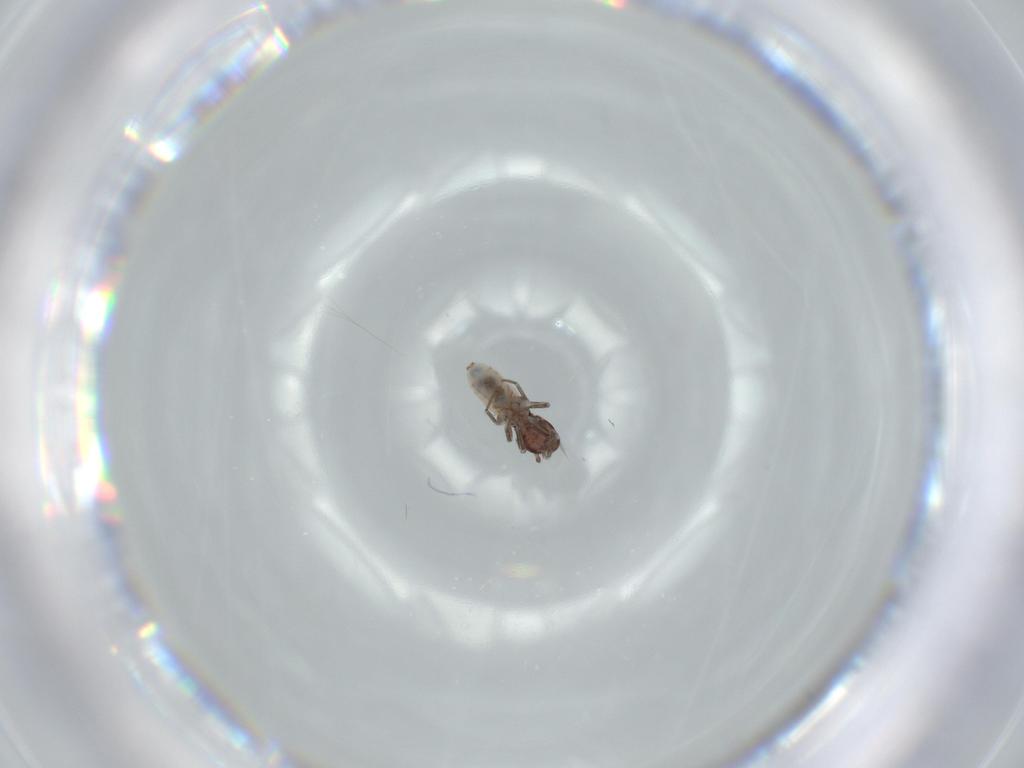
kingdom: Animalia
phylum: Arthropoda
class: Insecta
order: Psocodea
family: Lepidopsocidae
